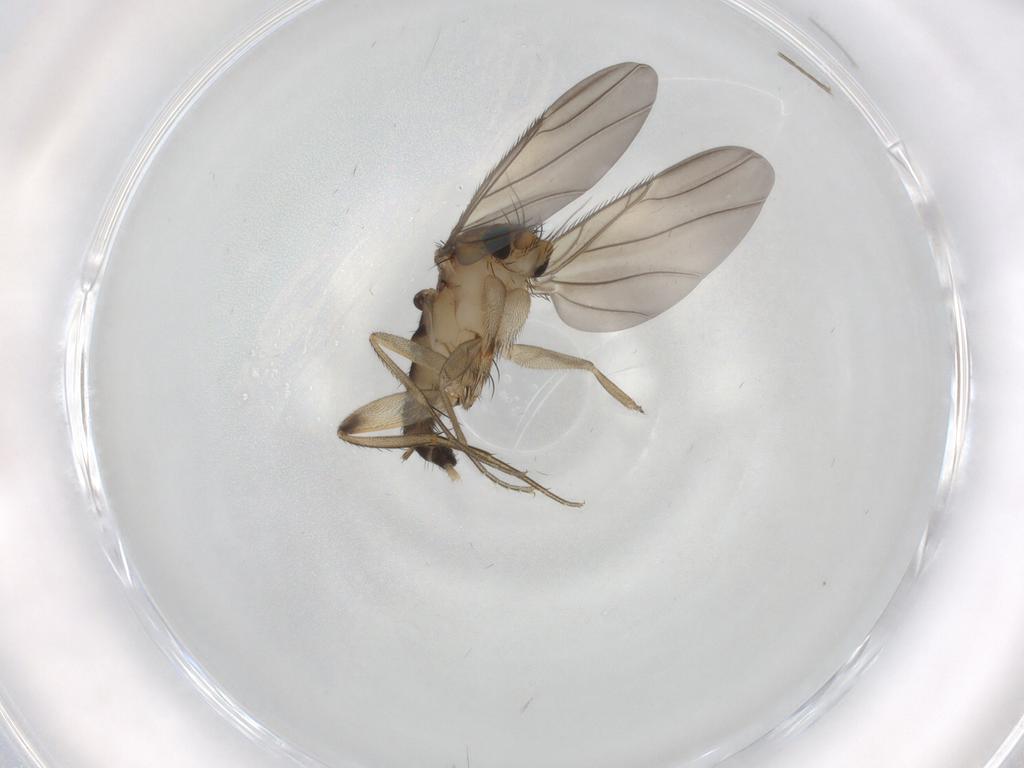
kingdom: Animalia
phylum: Arthropoda
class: Insecta
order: Diptera
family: Phoridae
